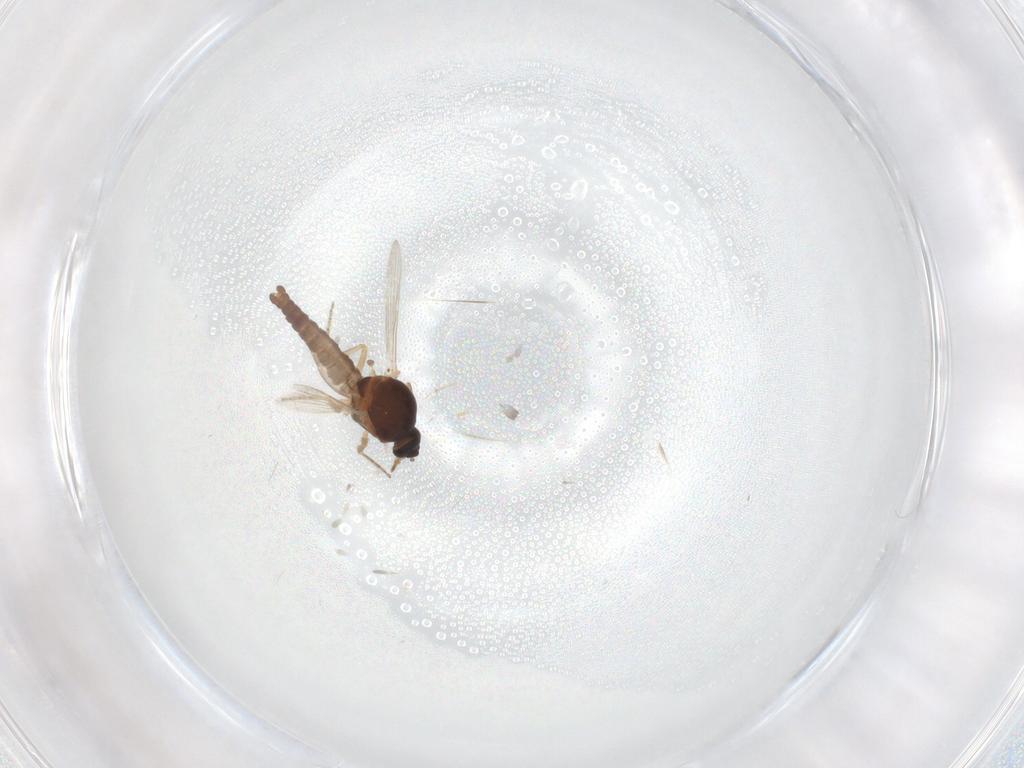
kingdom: Animalia
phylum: Arthropoda
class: Insecta
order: Diptera
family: Ceratopogonidae
